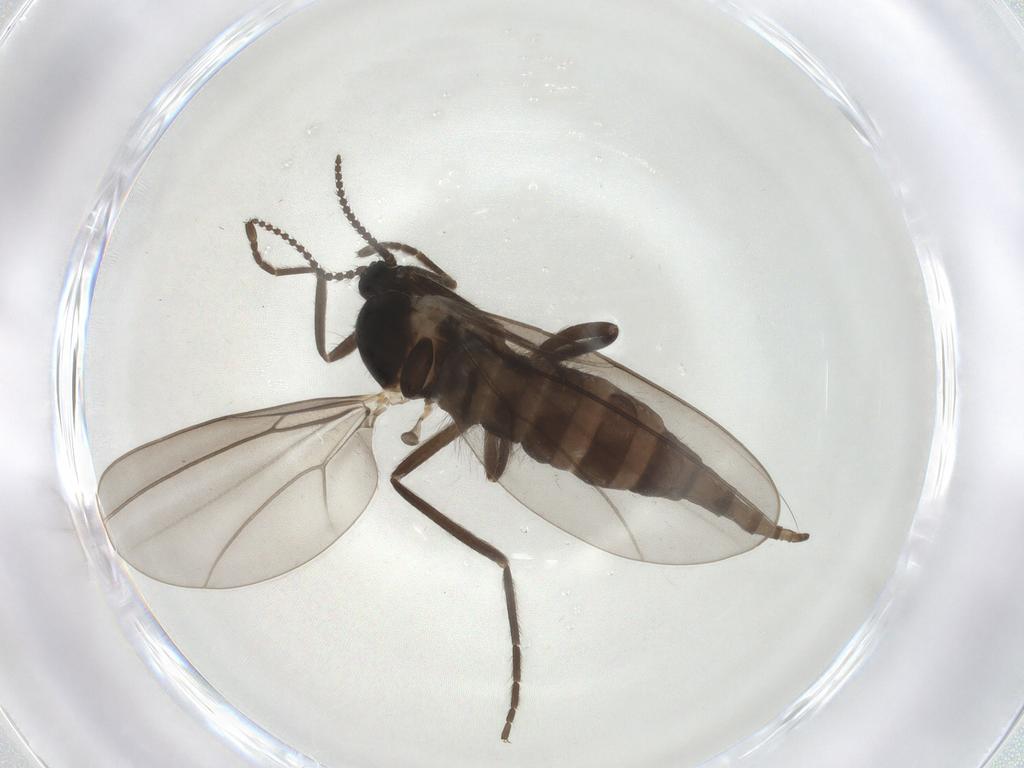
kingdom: Animalia
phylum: Arthropoda
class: Insecta
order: Diptera
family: Cecidomyiidae
